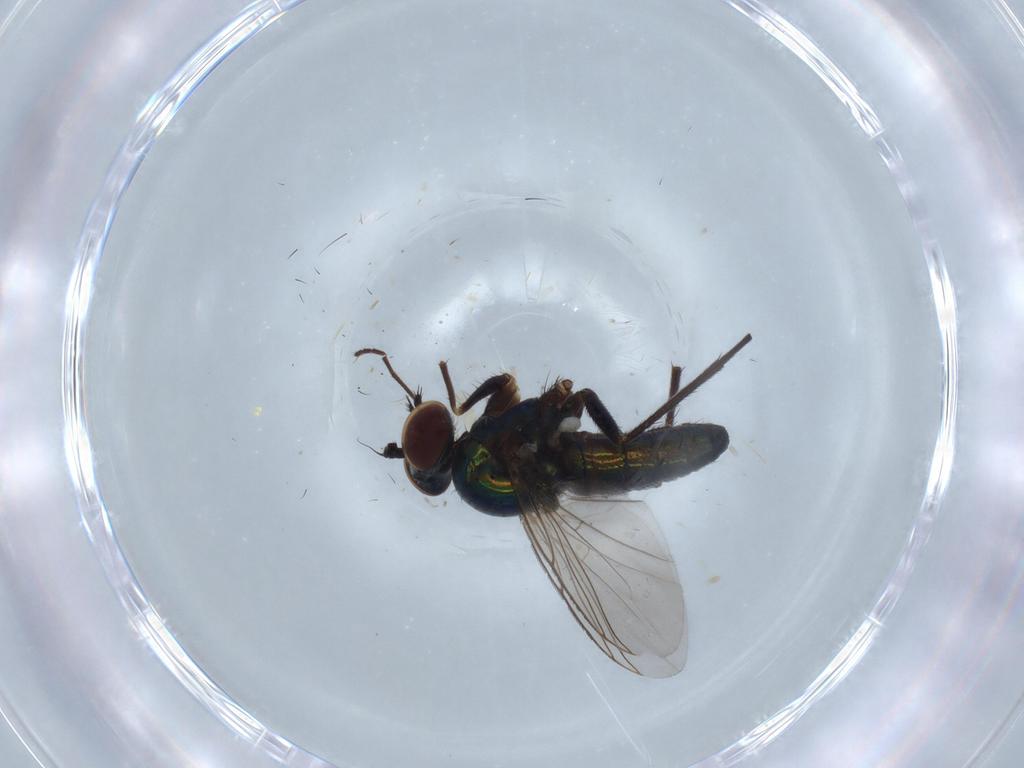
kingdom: Animalia
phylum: Arthropoda
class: Insecta
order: Diptera
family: Dolichopodidae
